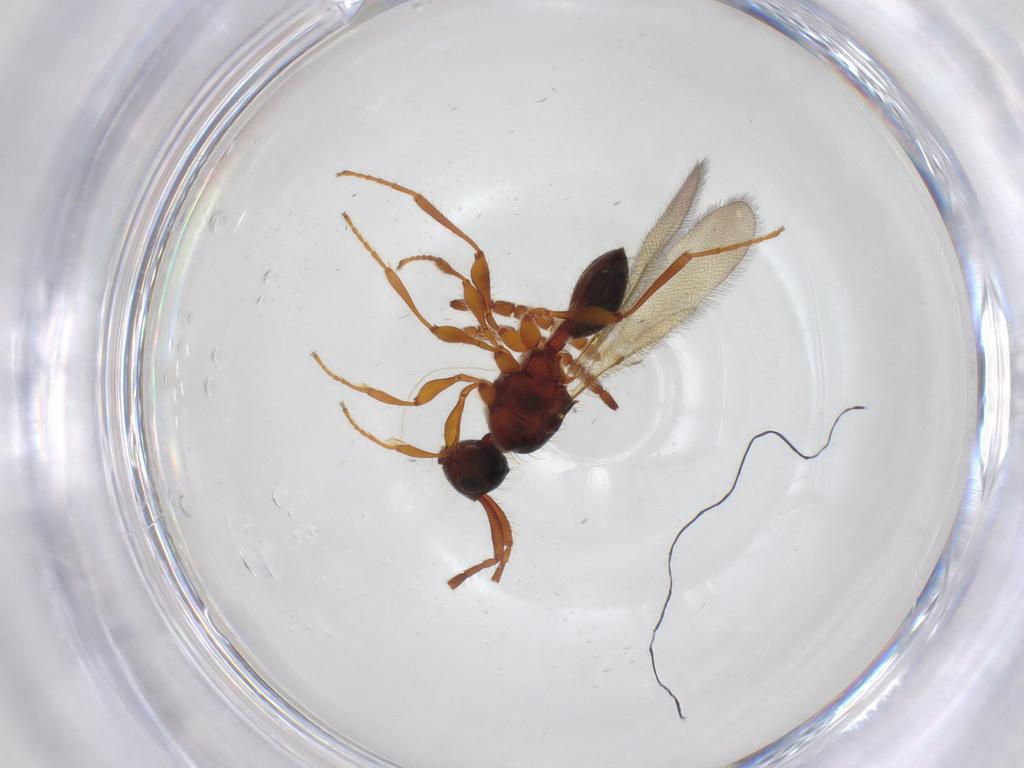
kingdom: Animalia
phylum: Arthropoda
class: Insecta
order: Hymenoptera
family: Diapriidae
